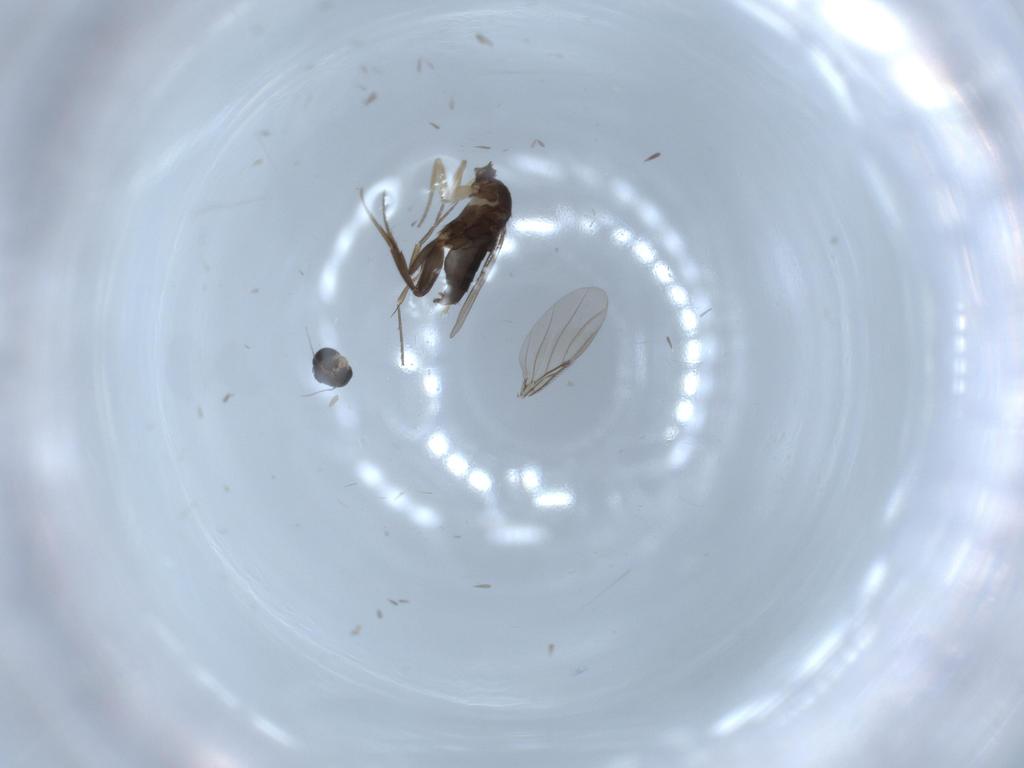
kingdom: Animalia
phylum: Arthropoda
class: Insecta
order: Diptera
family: Phoridae
